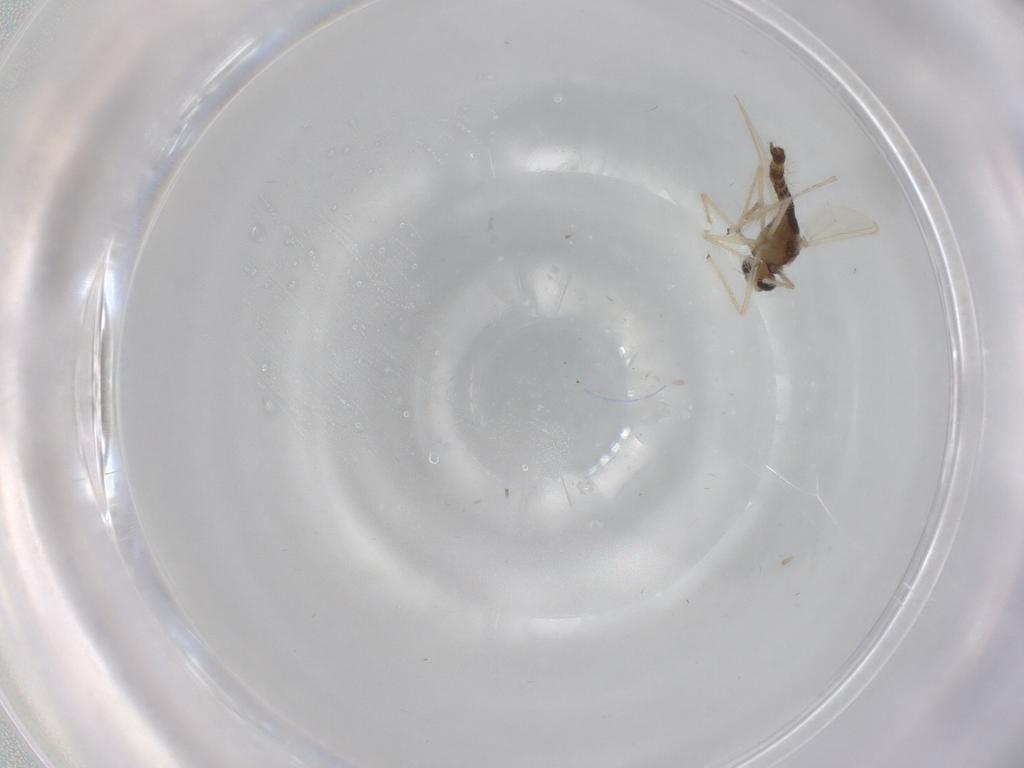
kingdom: Animalia
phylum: Arthropoda
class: Insecta
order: Diptera
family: Chironomidae
